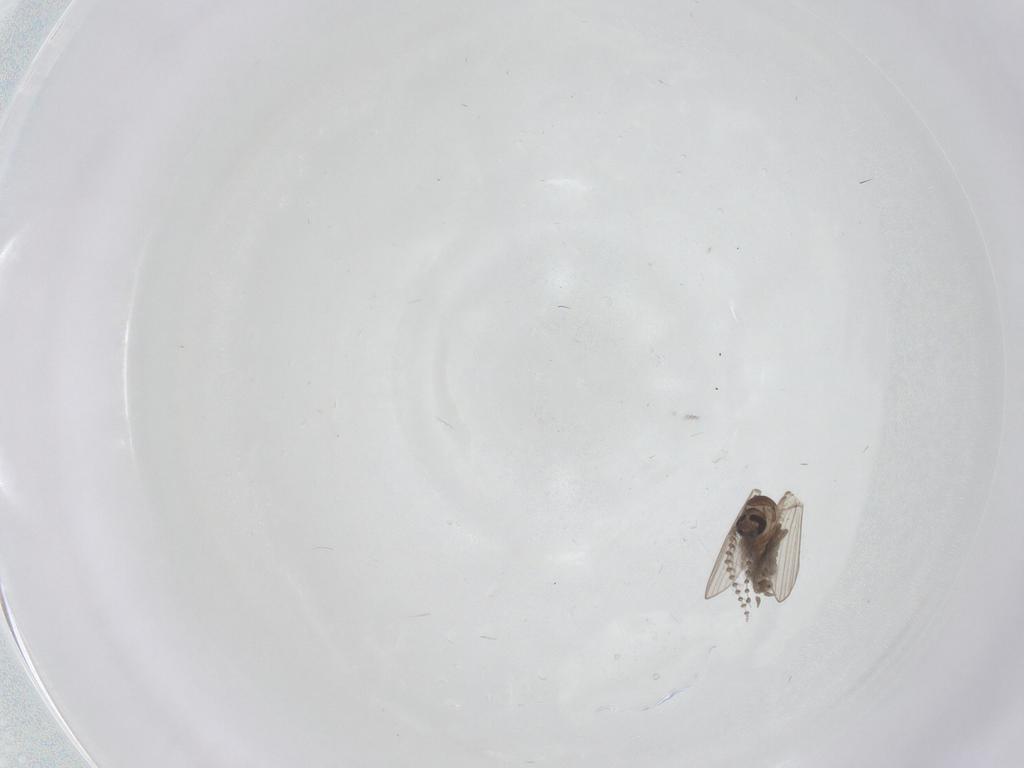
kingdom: Animalia
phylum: Arthropoda
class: Insecta
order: Diptera
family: Psychodidae
